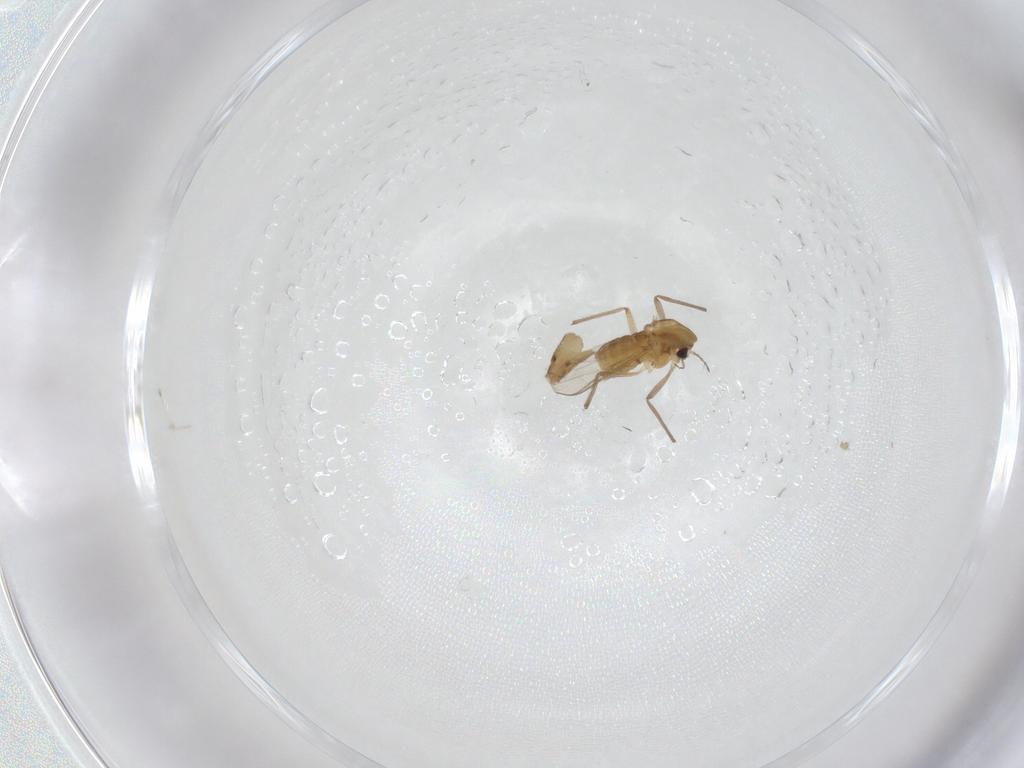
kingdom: Animalia
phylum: Arthropoda
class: Insecta
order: Diptera
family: Chironomidae
